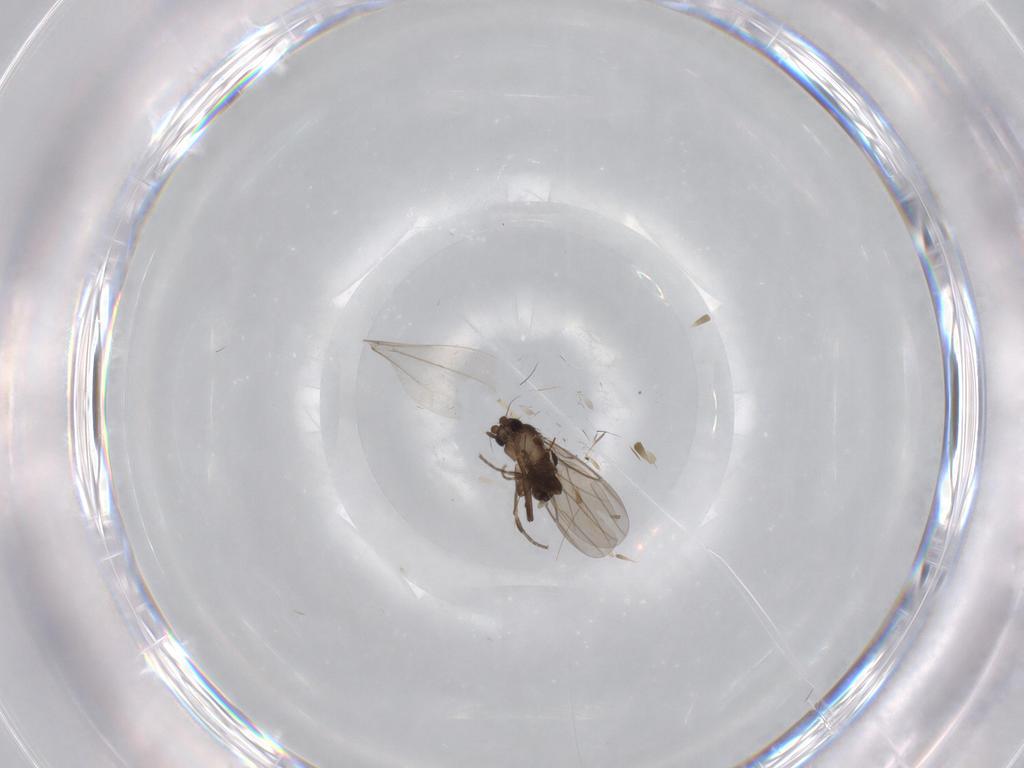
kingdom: Animalia
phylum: Arthropoda
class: Insecta
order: Diptera
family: Chironomidae
